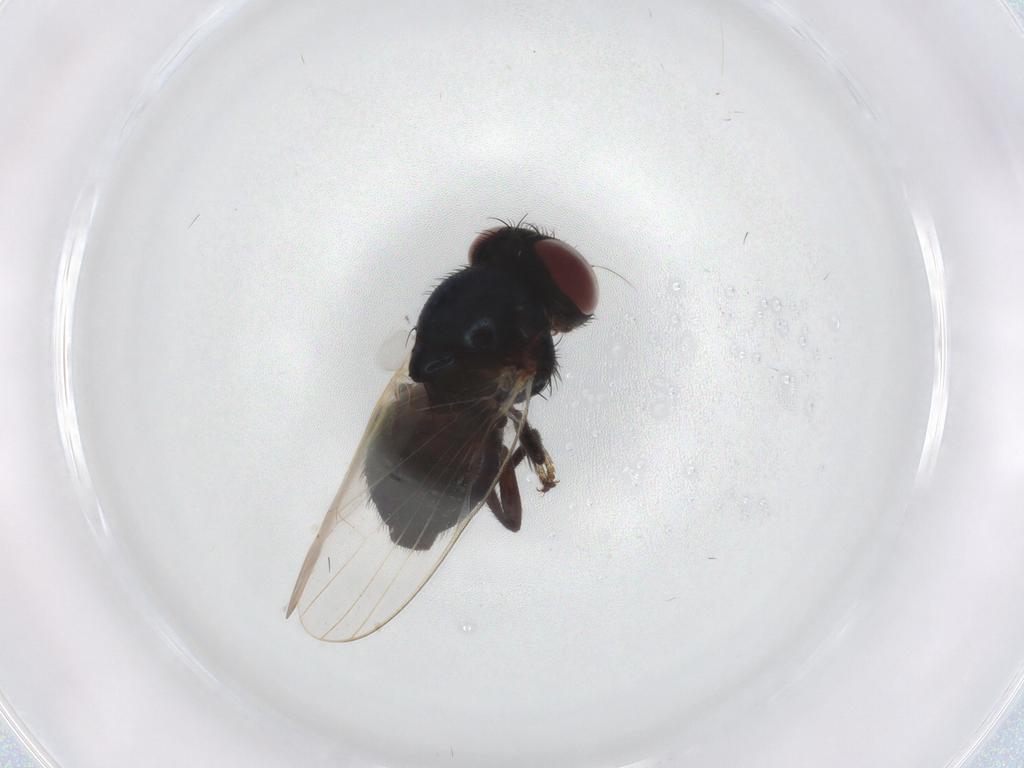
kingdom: Animalia
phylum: Arthropoda
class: Insecta
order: Diptera
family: Lonchaeidae
